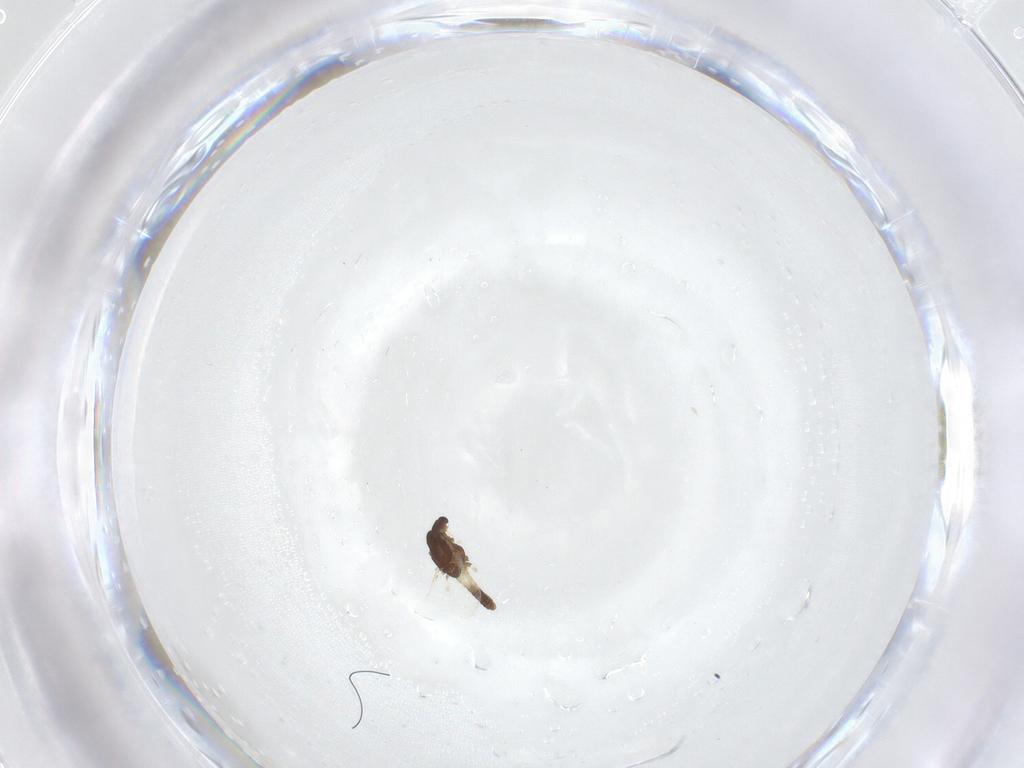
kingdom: Animalia
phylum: Arthropoda
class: Insecta
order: Diptera
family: Chironomidae
